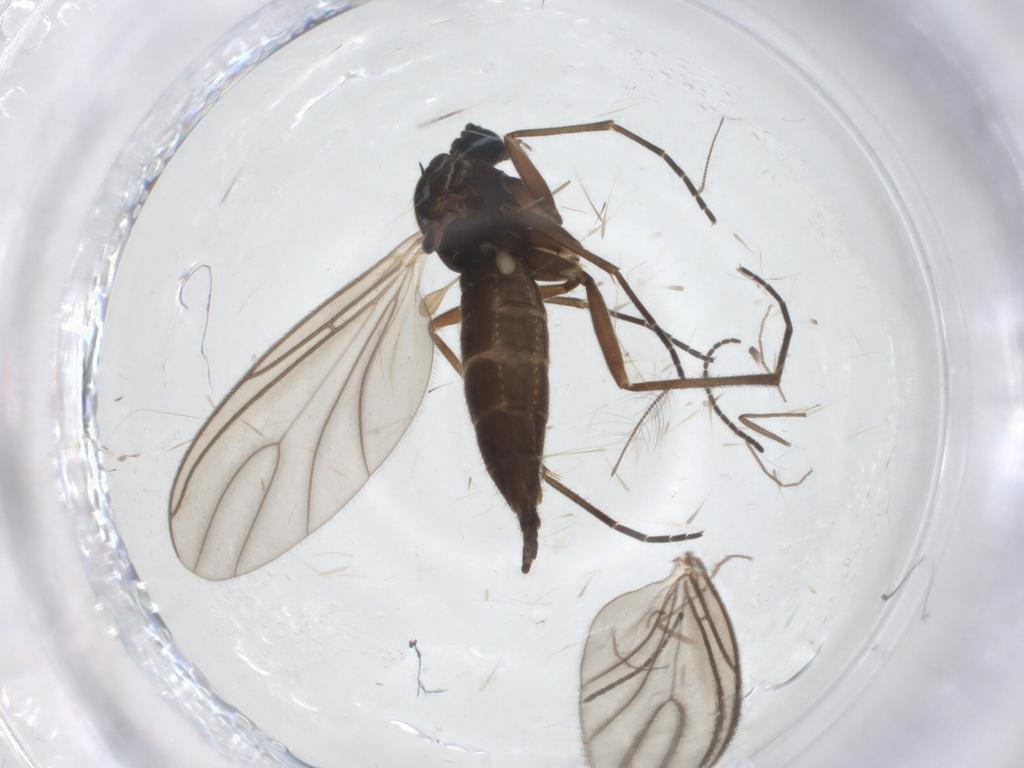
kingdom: Animalia
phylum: Arthropoda
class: Insecta
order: Diptera
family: Sciaridae
